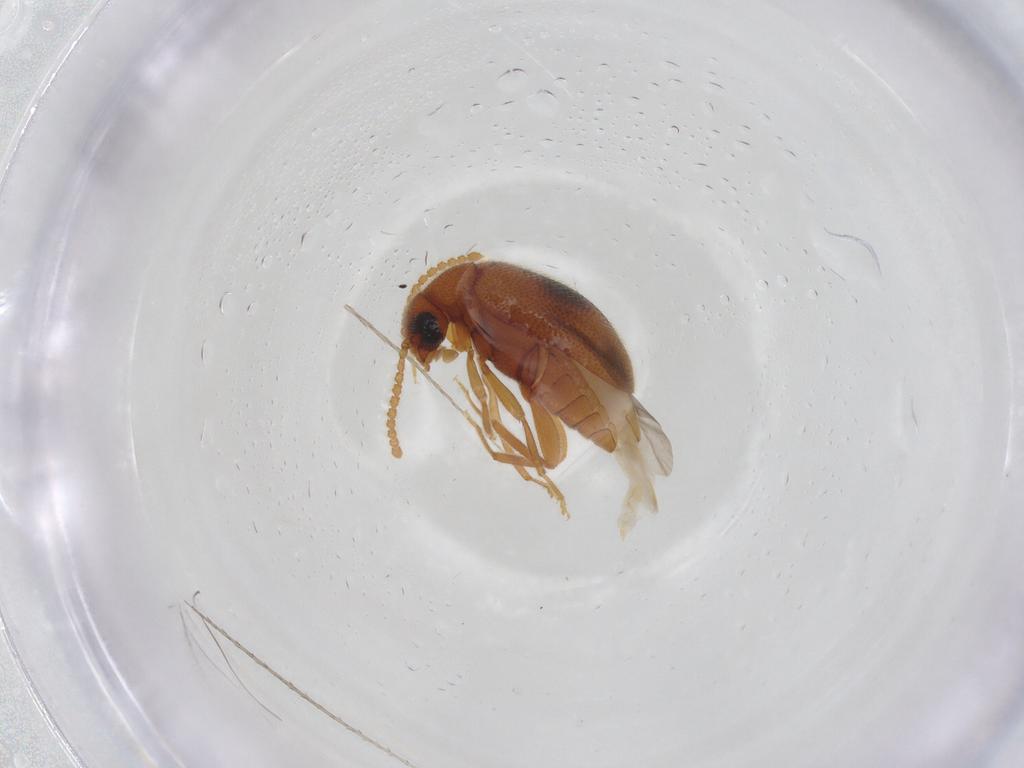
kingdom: Animalia
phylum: Arthropoda
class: Insecta
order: Coleoptera
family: Aderidae
